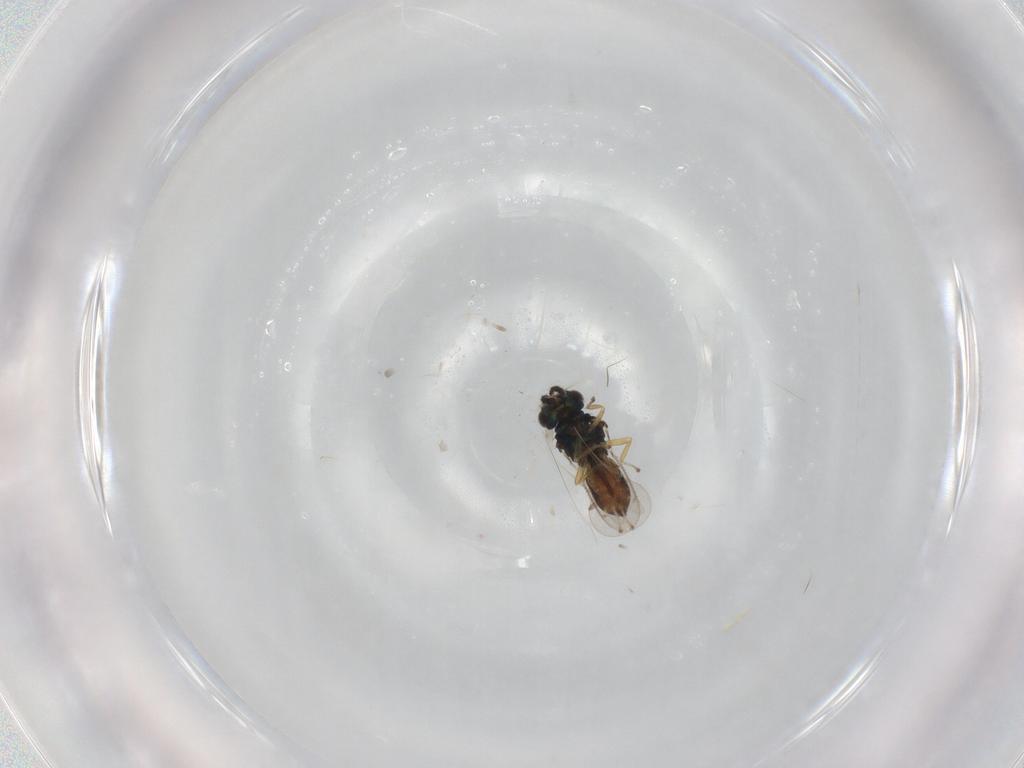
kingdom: Animalia
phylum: Arthropoda
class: Insecta
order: Hymenoptera
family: Eulophidae
